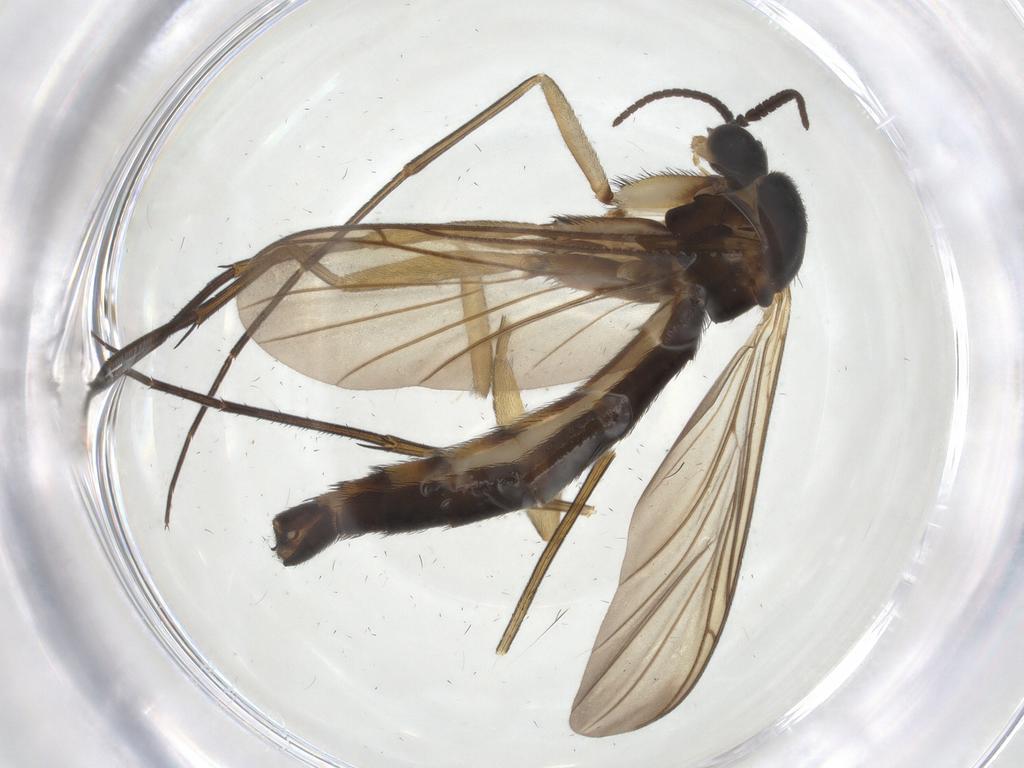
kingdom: Animalia
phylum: Arthropoda
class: Insecta
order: Diptera
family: Keroplatidae
